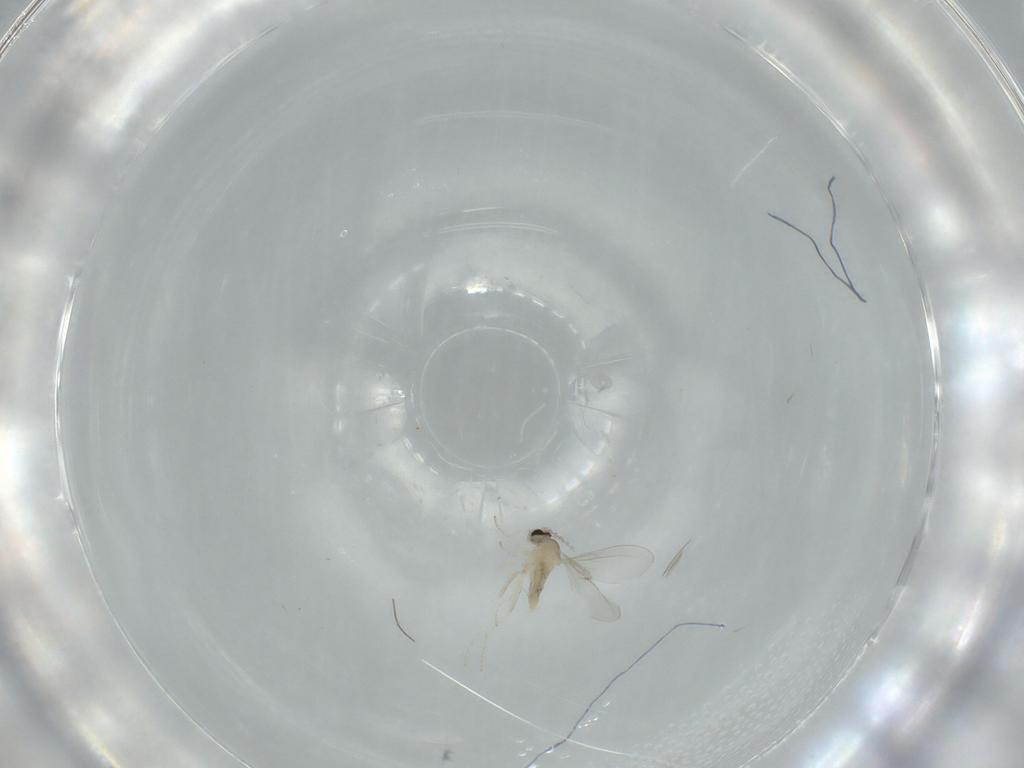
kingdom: Animalia
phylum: Arthropoda
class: Insecta
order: Diptera
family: Cecidomyiidae
